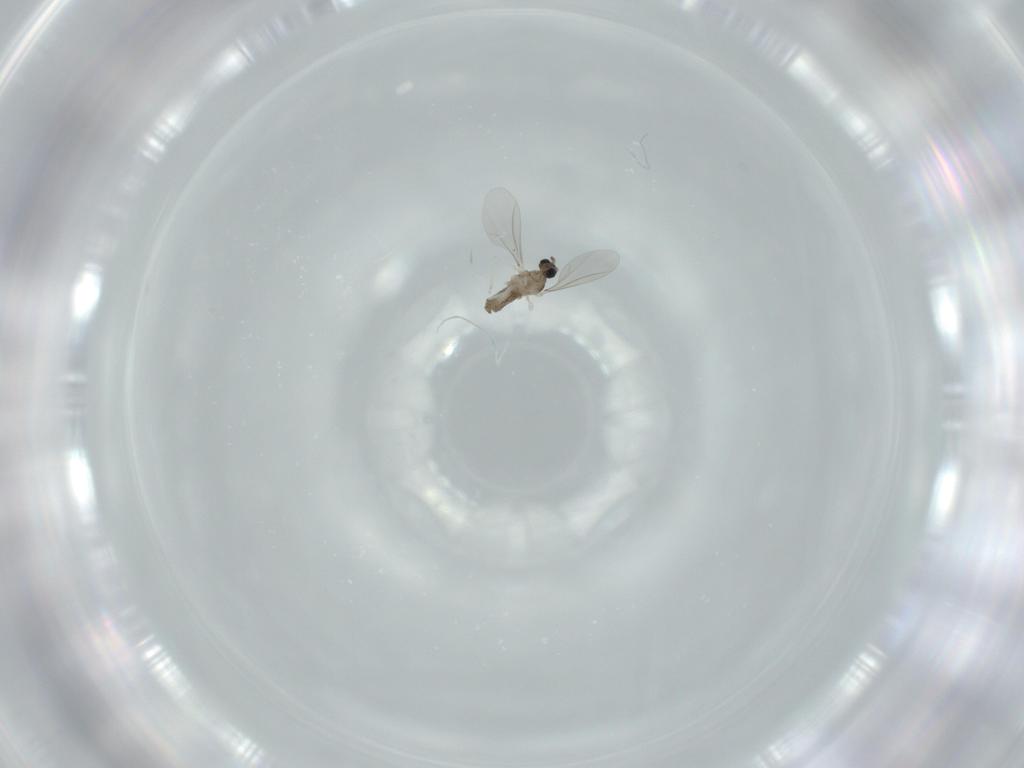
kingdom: Animalia
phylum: Arthropoda
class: Insecta
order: Diptera
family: Cecidomyiidae
